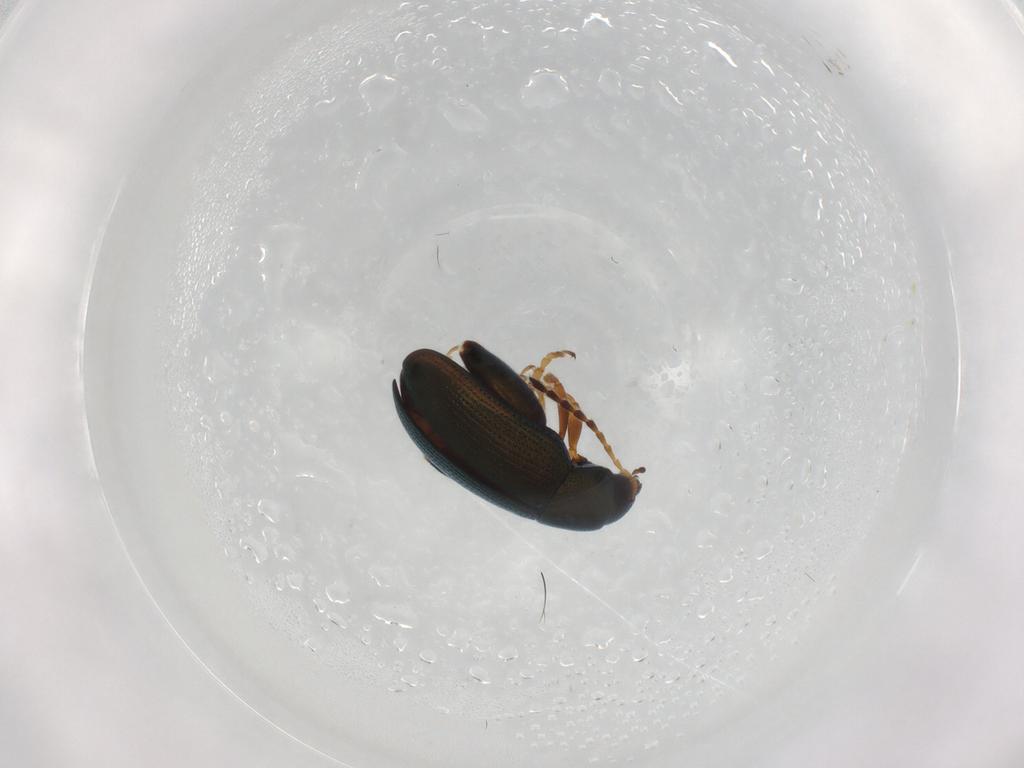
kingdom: Animalia
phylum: Arthropoda
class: Insecta
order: Coleoptera
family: Chrysomelidae
